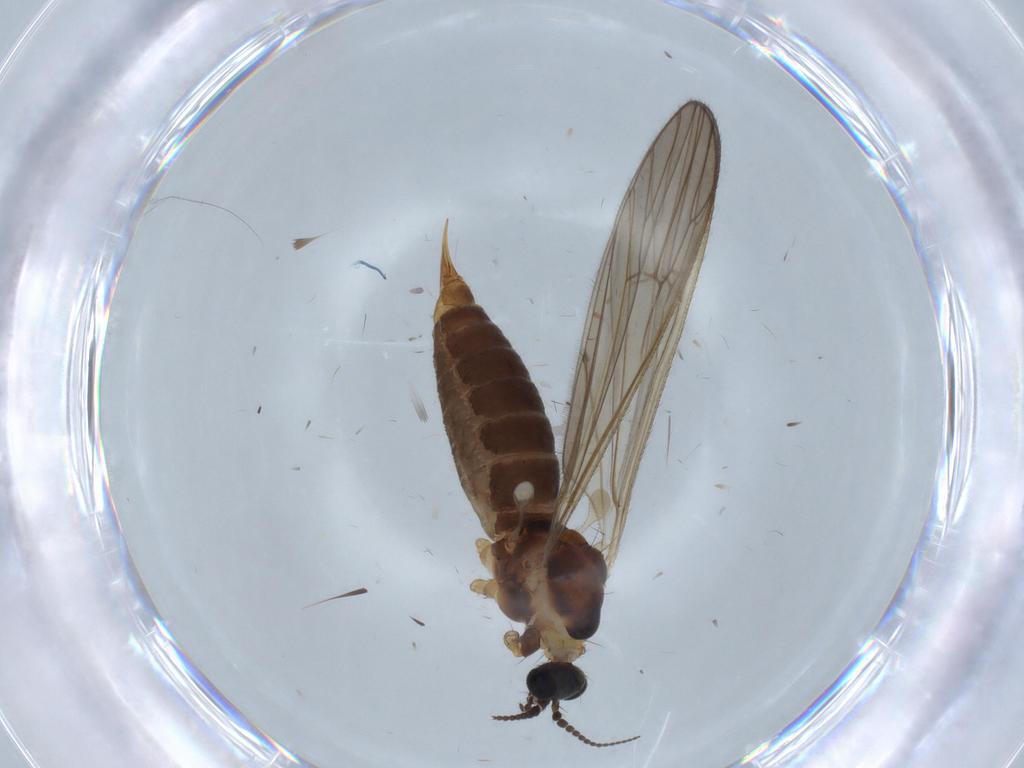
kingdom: Animalia
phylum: Arthropoda
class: Insecta
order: Diptera
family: Agromyzidae
